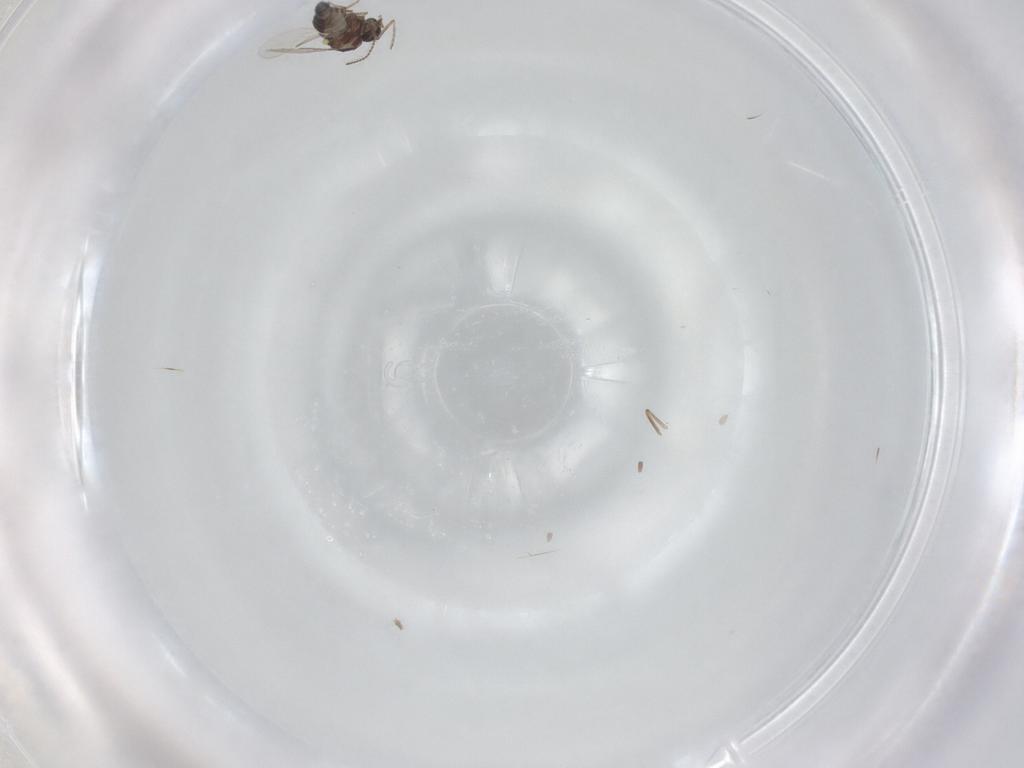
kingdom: Animalia
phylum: Arthropoda
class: Insecta
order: Diptera
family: Ceratopogonidae
